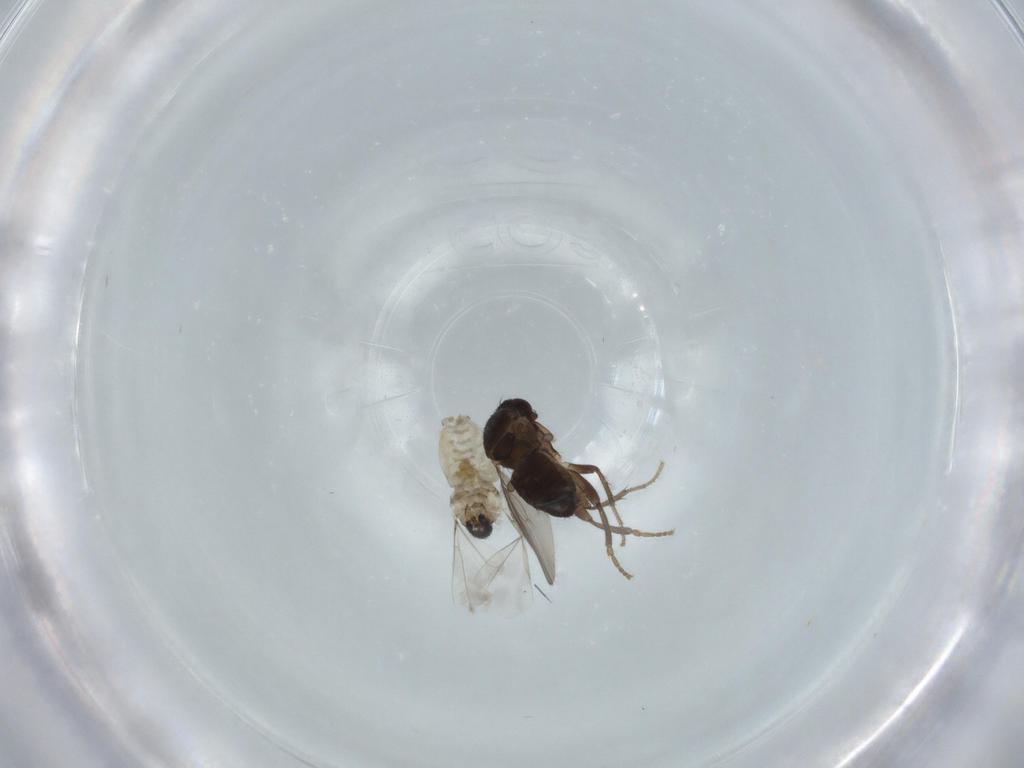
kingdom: Animalia
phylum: Arthropoda
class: Insecta
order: Diptera
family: Sphaeroceridae
